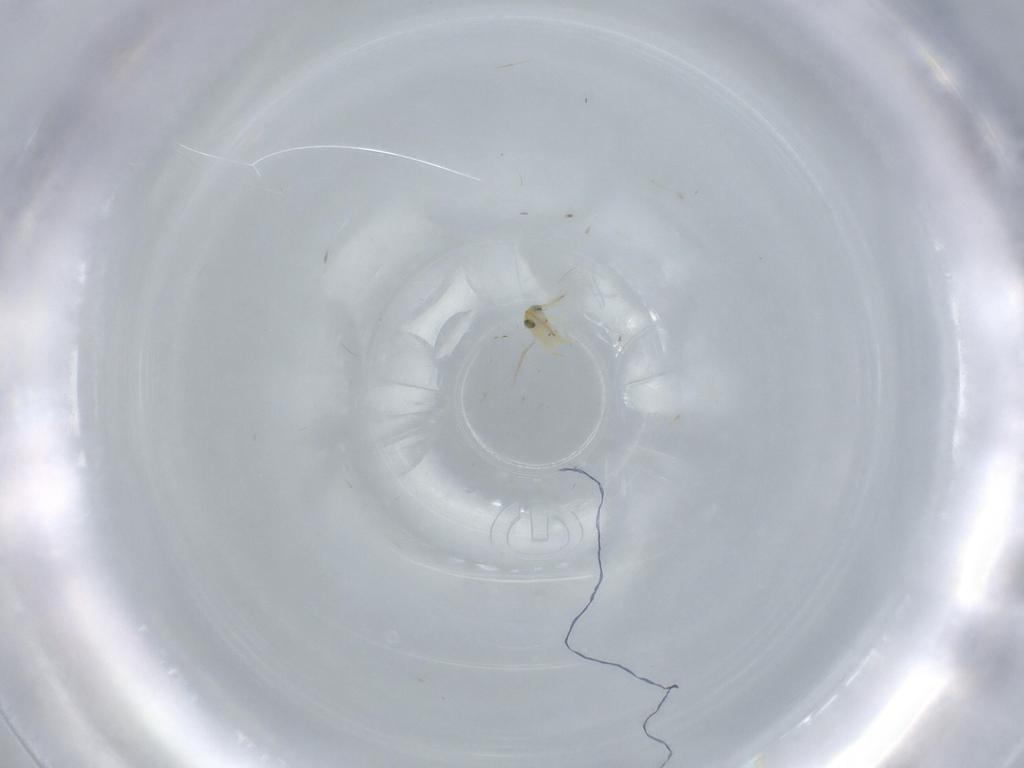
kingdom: Animalia
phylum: Arthropoda
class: Insecta
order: Hymenoptera
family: Aphelinidae
